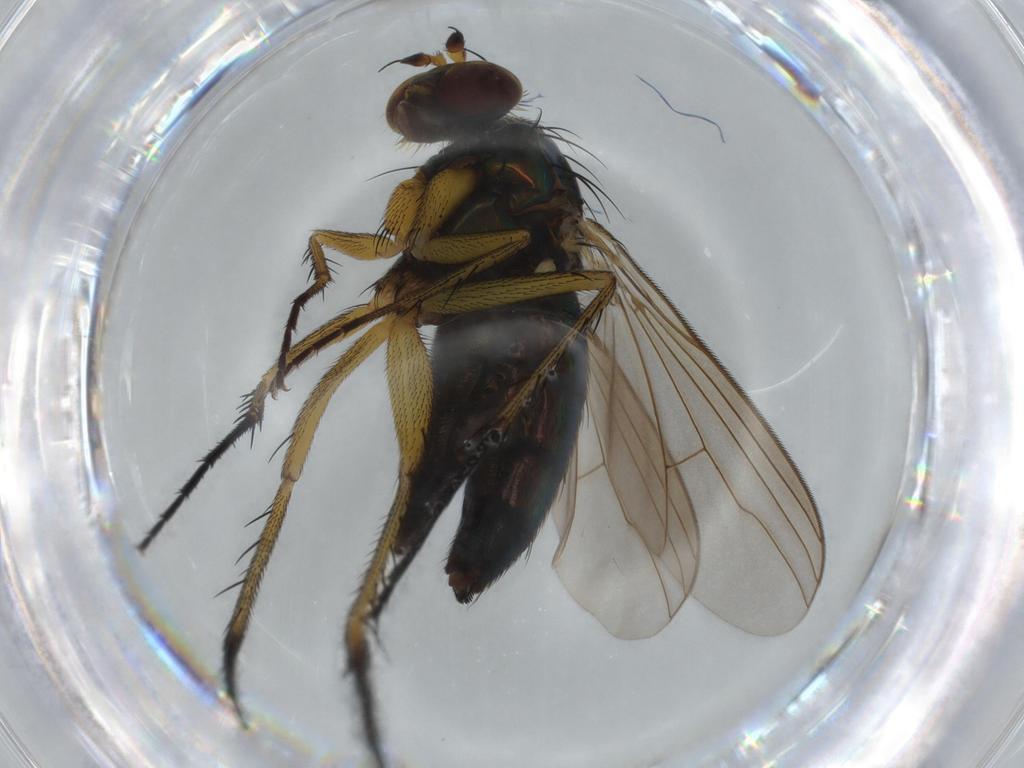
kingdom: Animalia
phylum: Arthropoda
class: Insecta
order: Diptera
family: Dolichopodidae
